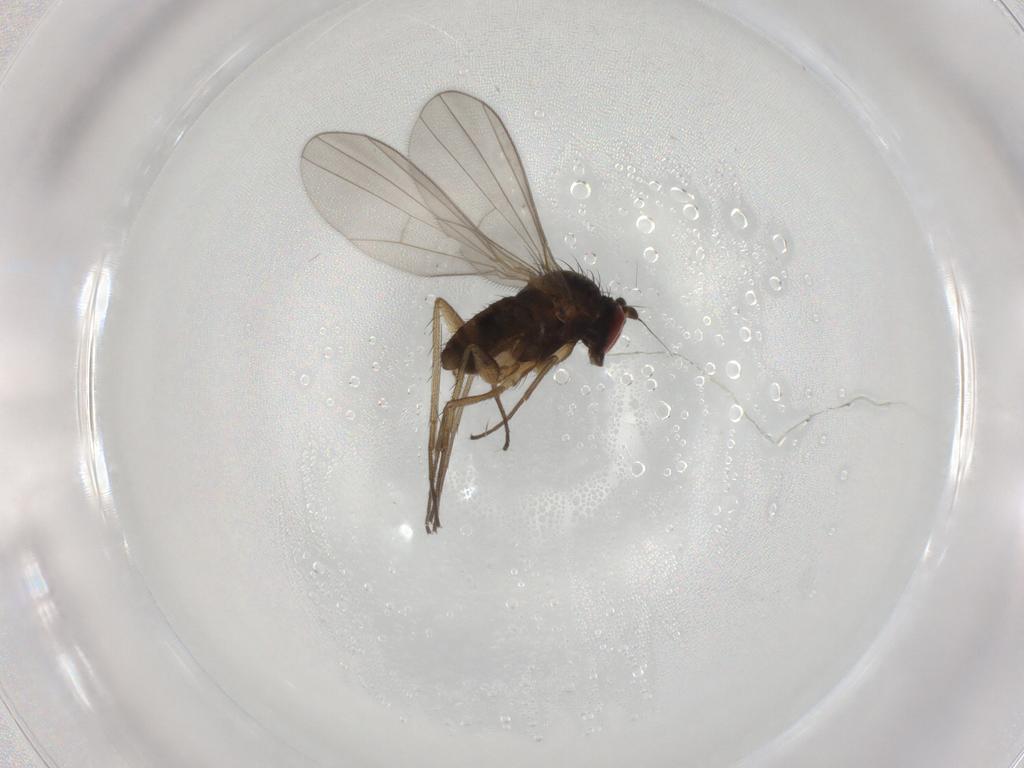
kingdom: Animalia
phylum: Arthropoda
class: Insecta
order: Diptera
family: Dolichopodidae
